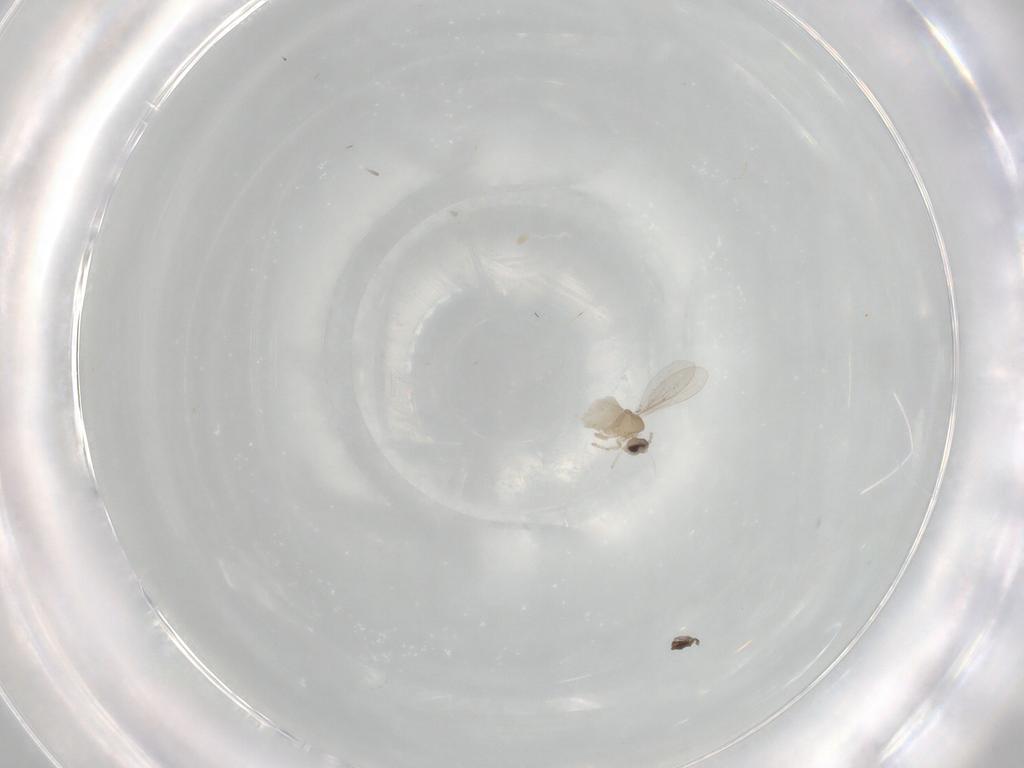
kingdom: Animalia
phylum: Arthropoda
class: Insecta
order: Diptera
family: Cecidomyiidae
